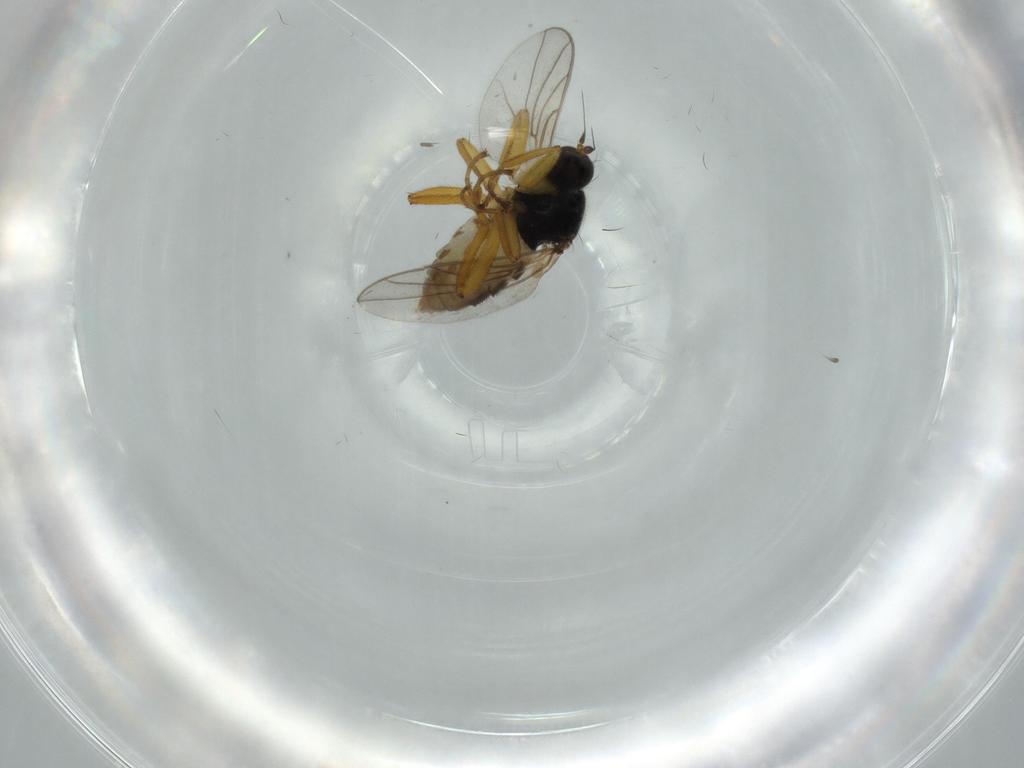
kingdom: Animalia
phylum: Arthropoda
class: Insecta
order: Diptera
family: Hybotidae
